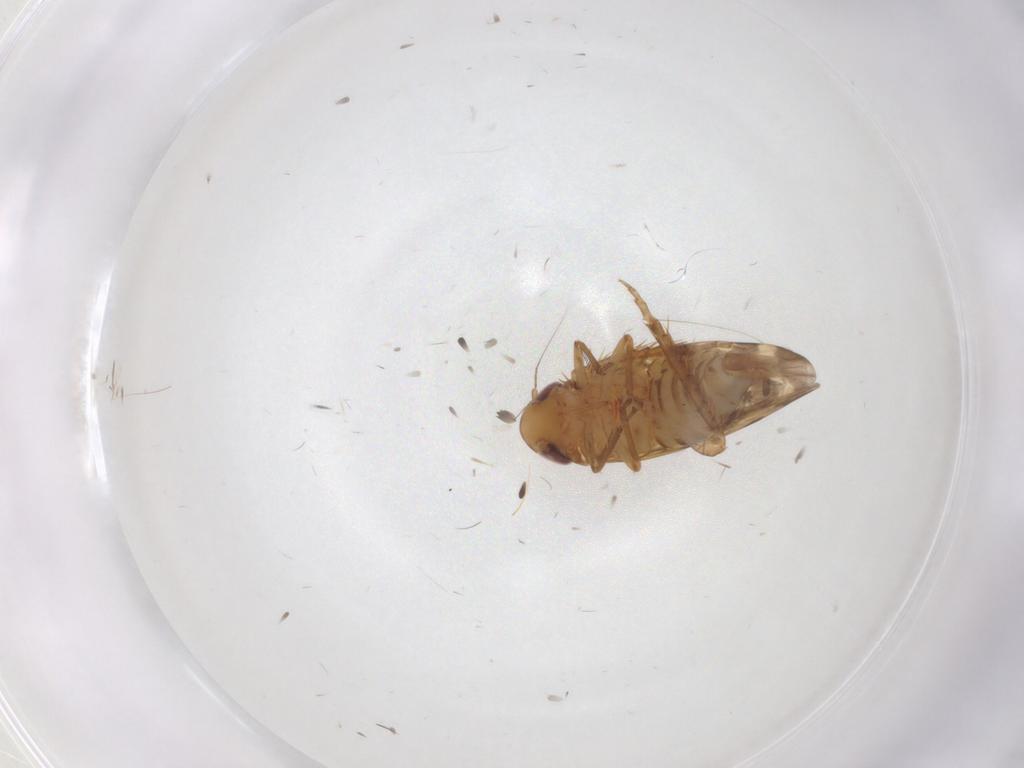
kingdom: Animalia
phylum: Arthropoda
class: Insecta
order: Hemiptera
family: Cicadellidae
